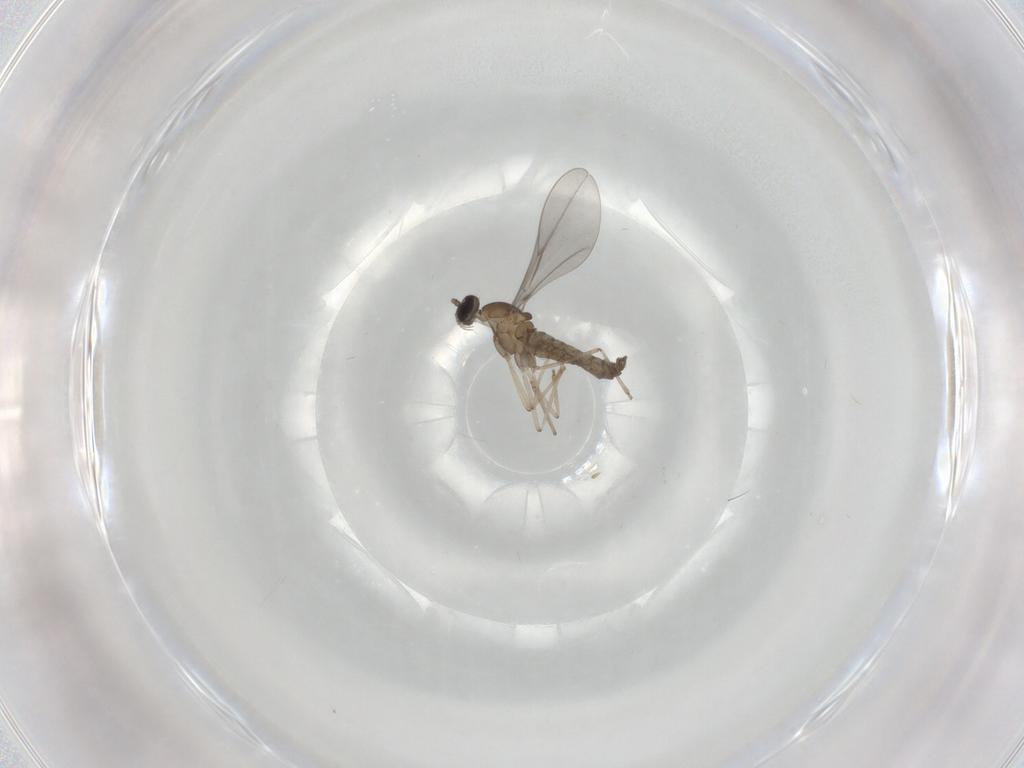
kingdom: Animalia
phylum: Arthropoda
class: Insecta
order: Diptera
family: Cecidomyiidae
